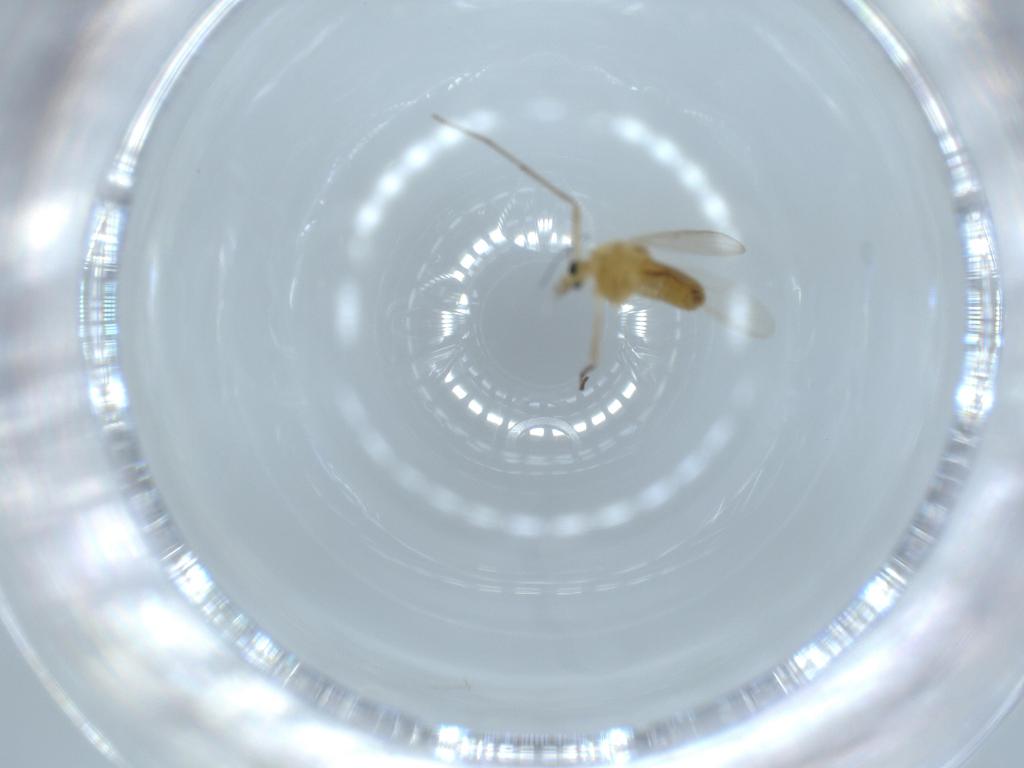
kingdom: Animalia
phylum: Arthropoda
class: Insecta
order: Diptera
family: Chironomidae
